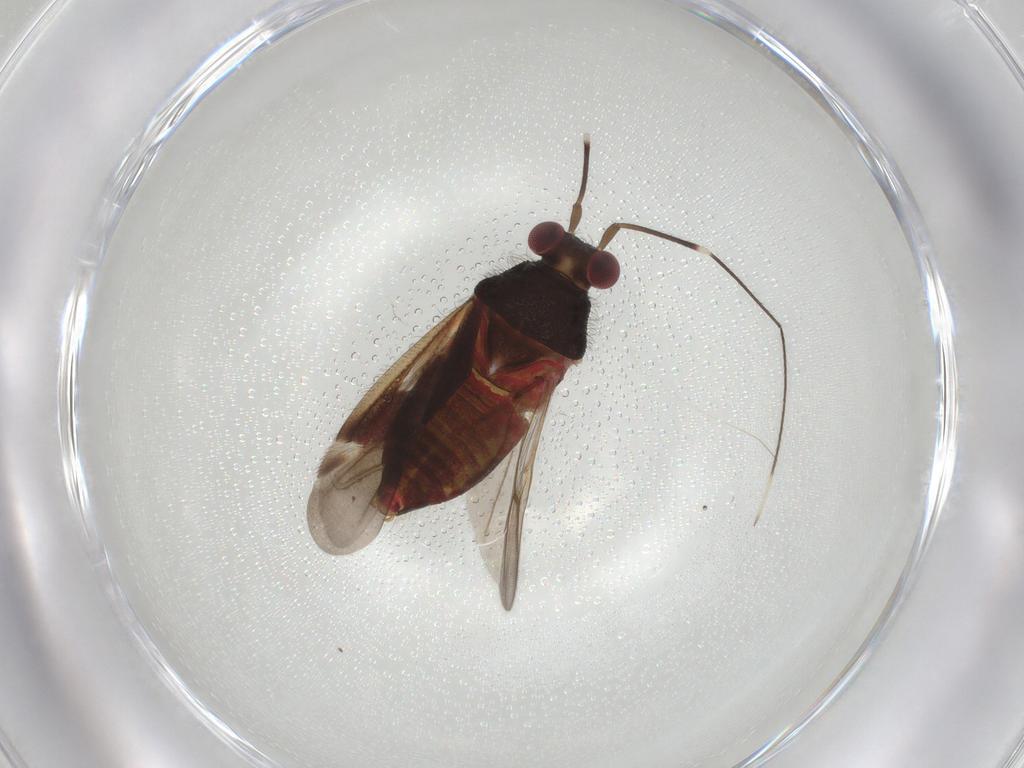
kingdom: Animalia
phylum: Arthropoda
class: Insecta
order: Hemiptera
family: Miridae
